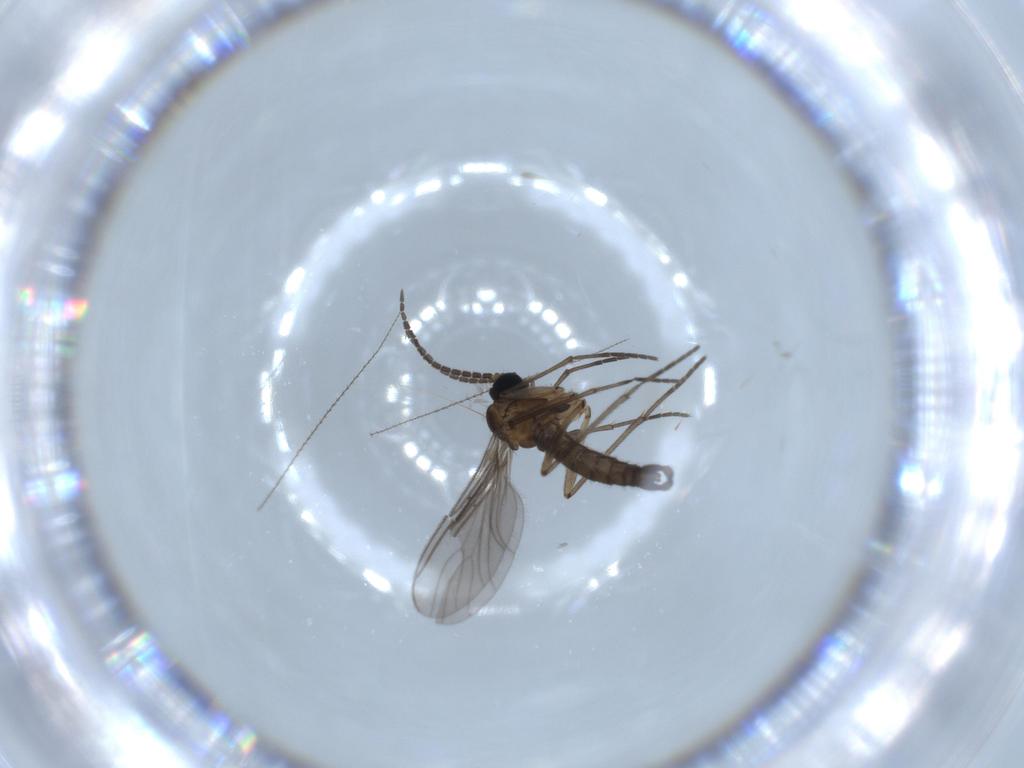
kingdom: Animalia
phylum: Arthropoda
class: Insecta
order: Diptera
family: Sciaridae
